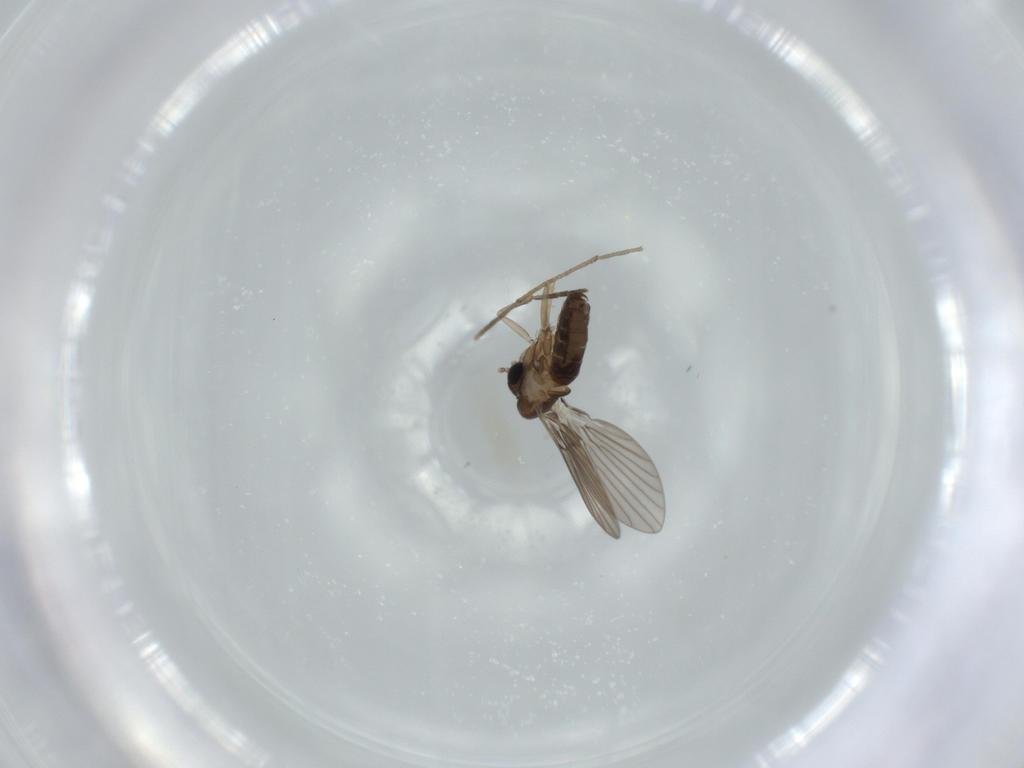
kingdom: Animalia
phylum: Arthropoda
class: Insecta
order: Diptera
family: Psychodidae
